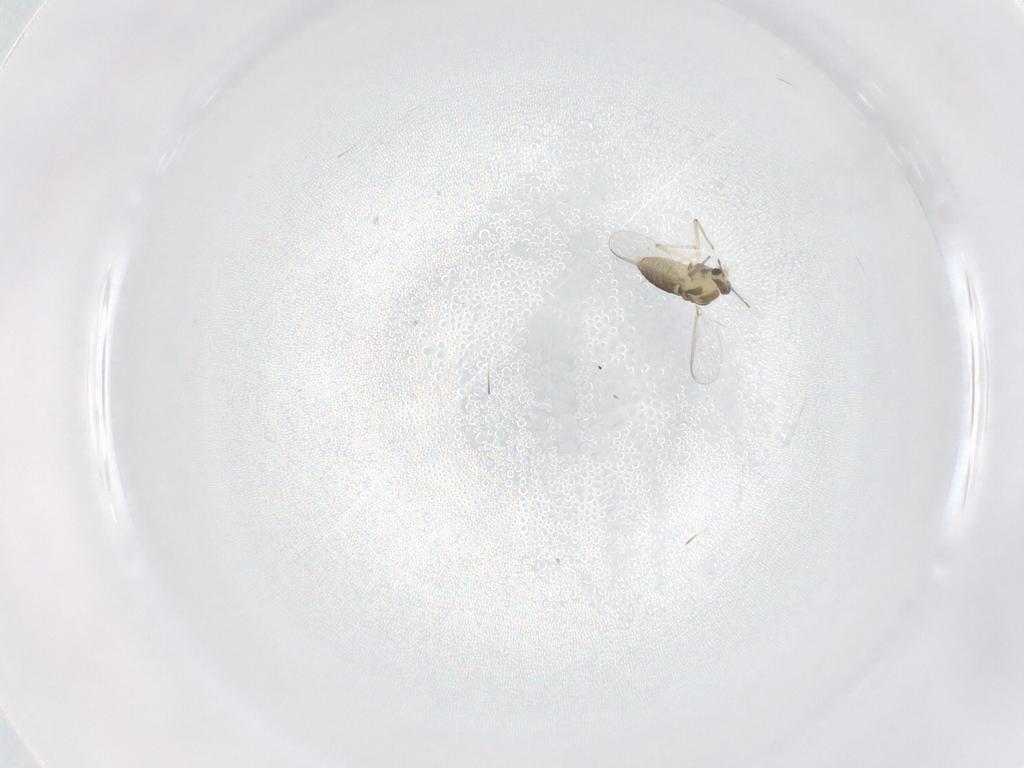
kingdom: Animalia
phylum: Arthropoda
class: Insecta
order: Diptera
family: Chironomidae
